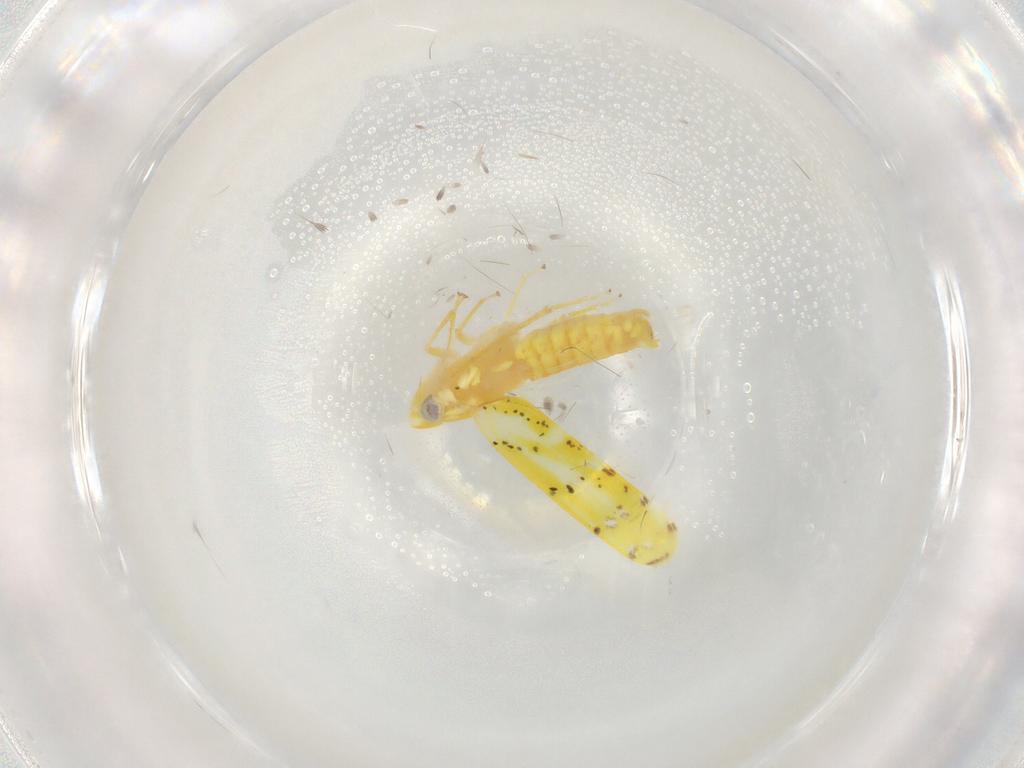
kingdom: Animalia
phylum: Arthropoda
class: Insecta
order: Hemiptera
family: Cicadellidae
